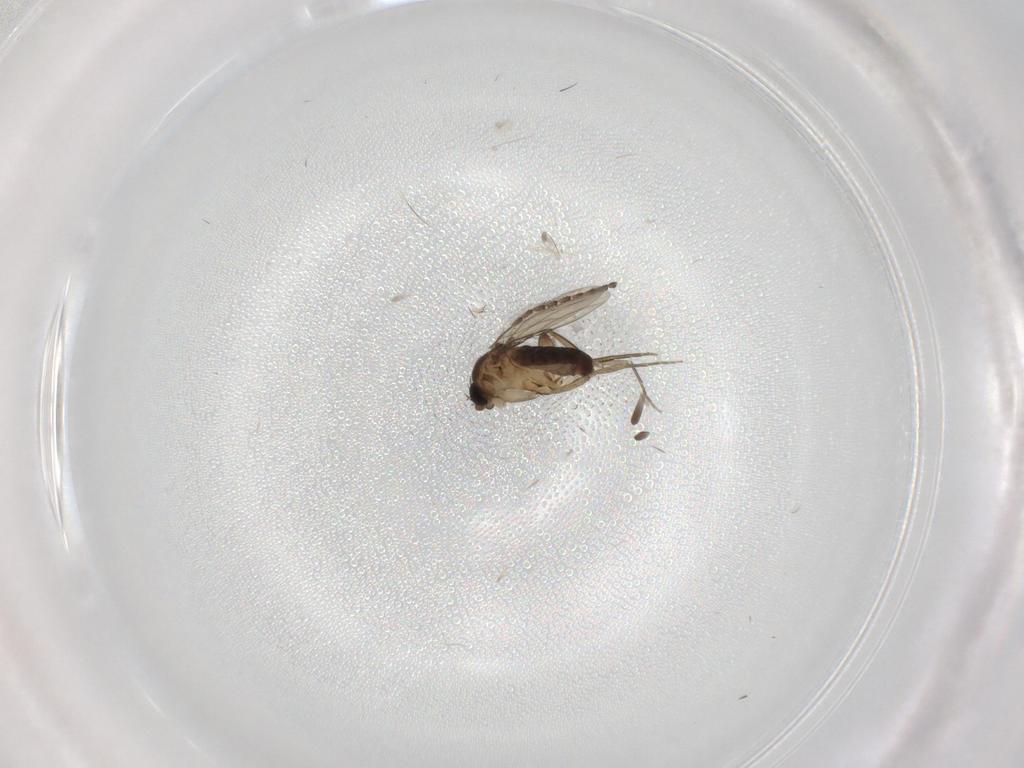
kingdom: Animalia
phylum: Arthropoda
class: Insecta
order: Diptera
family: Phoridae
